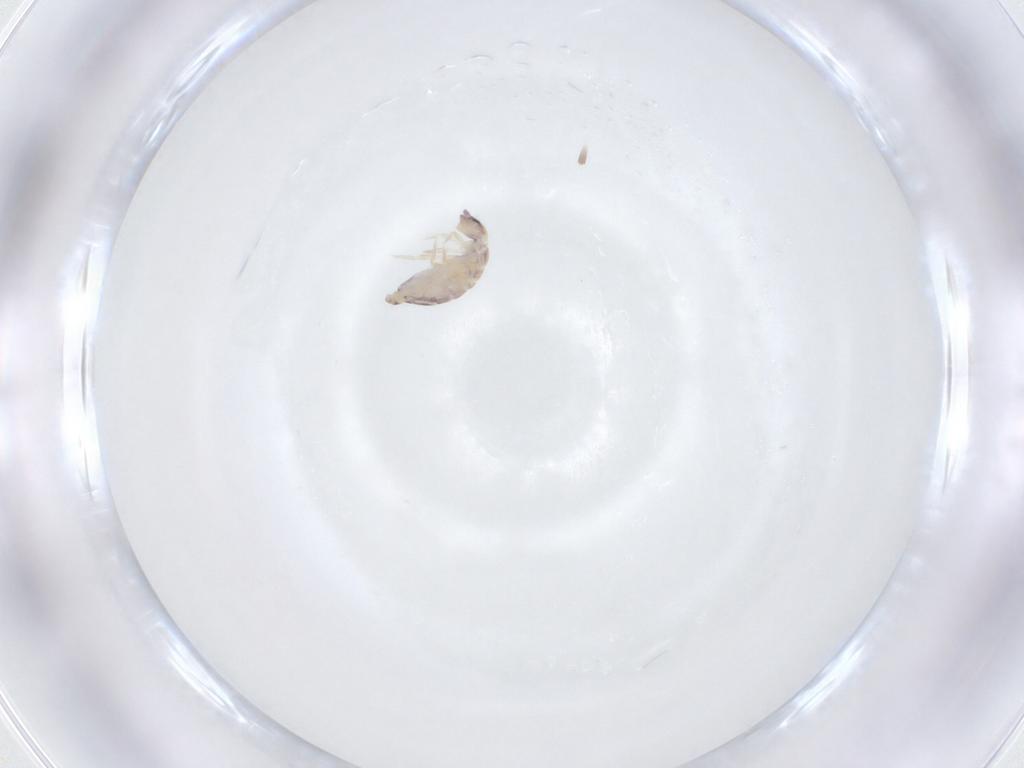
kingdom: Animalia
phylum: Arthropoda
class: Collembola
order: Entomobryomorpha
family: Entomobryidae
